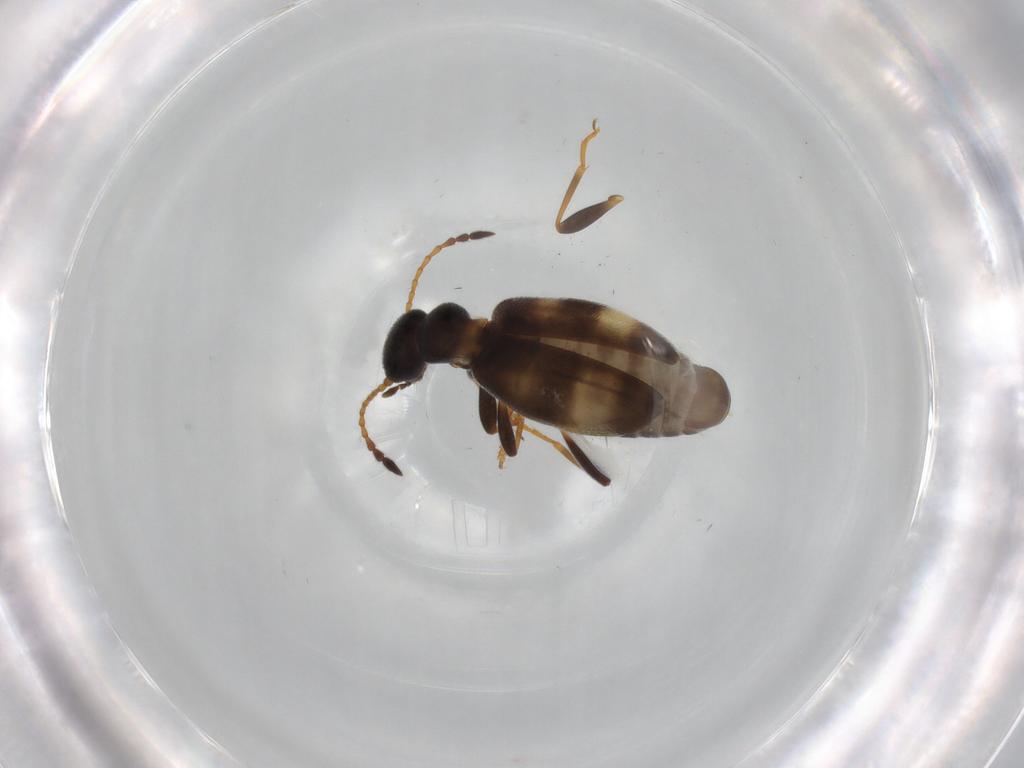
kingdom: Animalia
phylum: Arthropoda
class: Insecta
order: Coleoptera
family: Anthicidae
